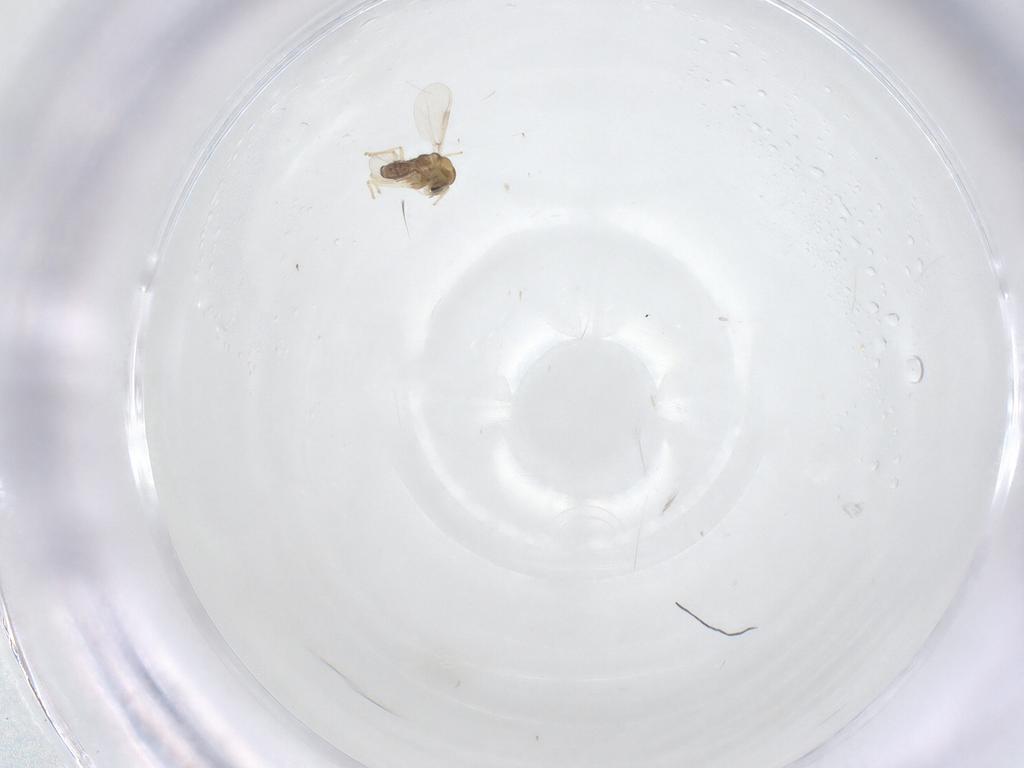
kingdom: Animalia
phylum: Arthropoda
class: Insecta
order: Diptera
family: Chironomidae
